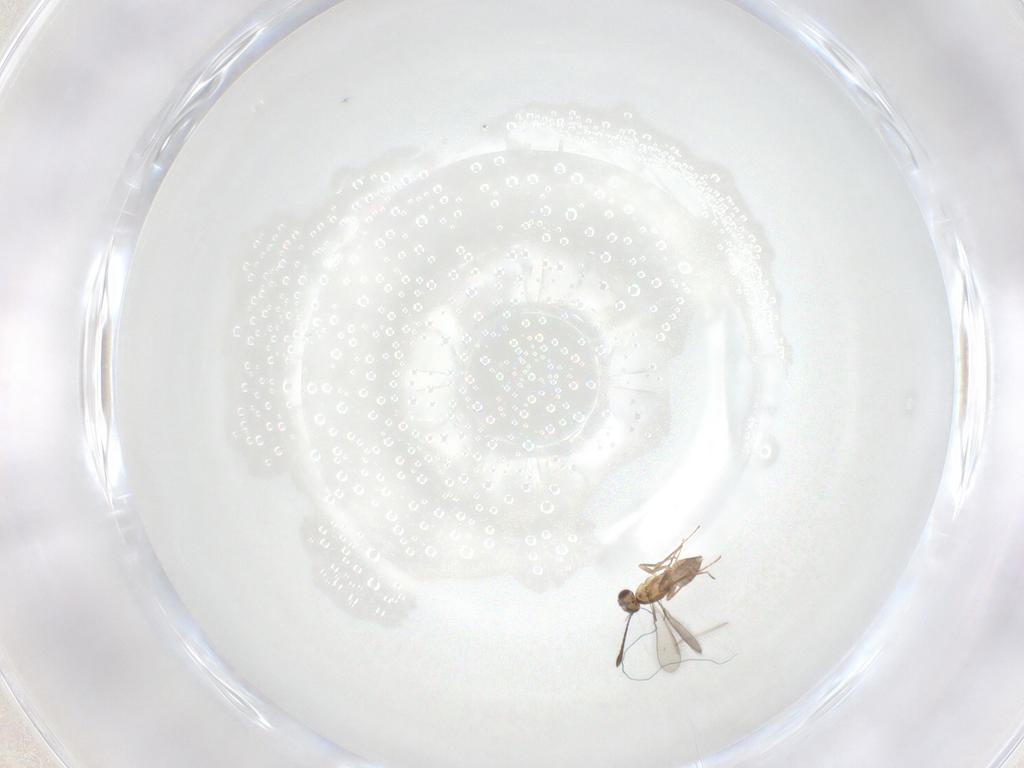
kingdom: Animalia
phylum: Arthropoda
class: Insecta
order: Hymenoptera
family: Mymaridae
